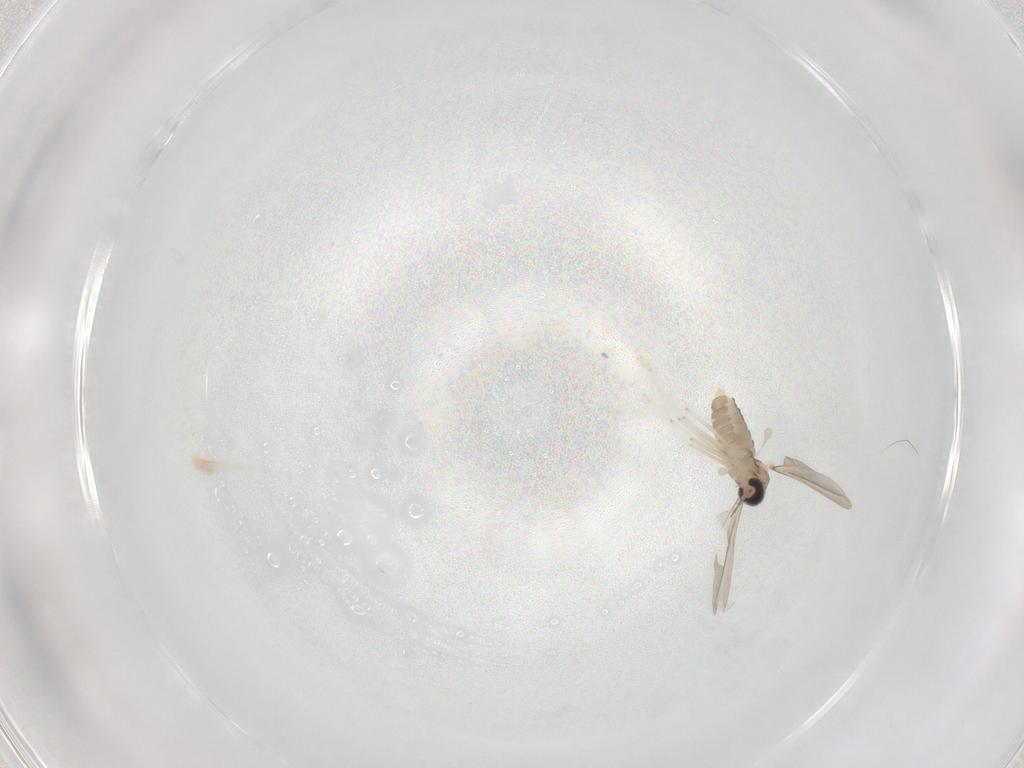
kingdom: Animalia
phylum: Arthropoda
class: Insecta
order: Diptera
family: Limoniidae
